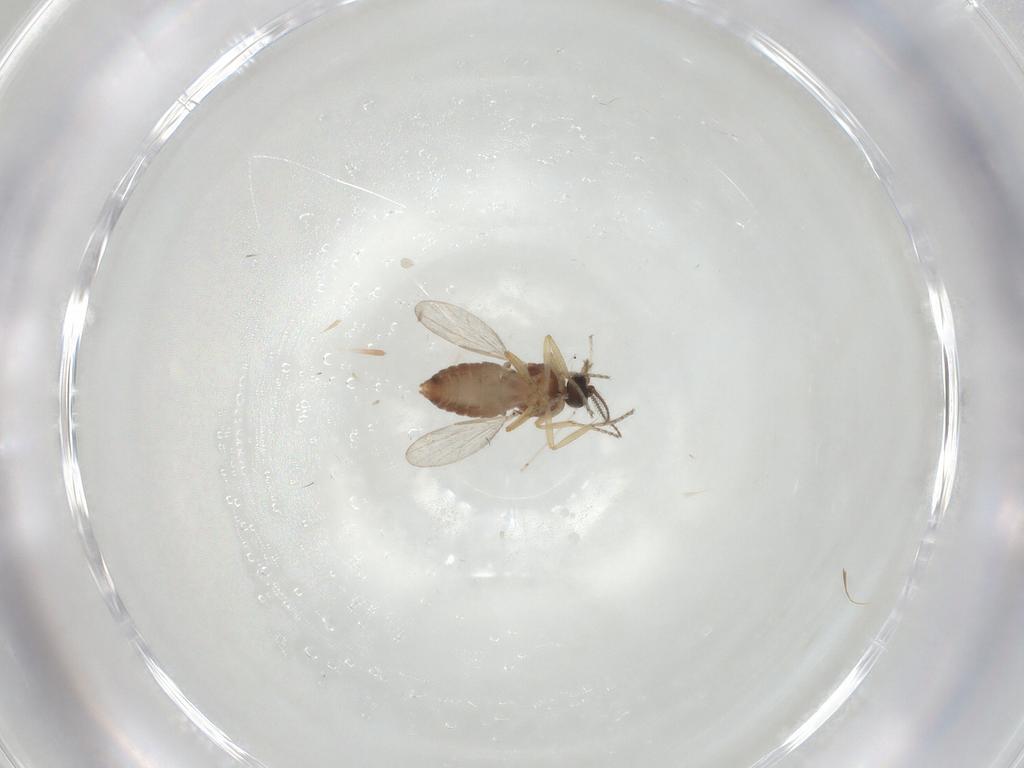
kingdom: Animalia
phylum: Arthropoda
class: Insecta
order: Diptera
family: Ceratopogonidae
